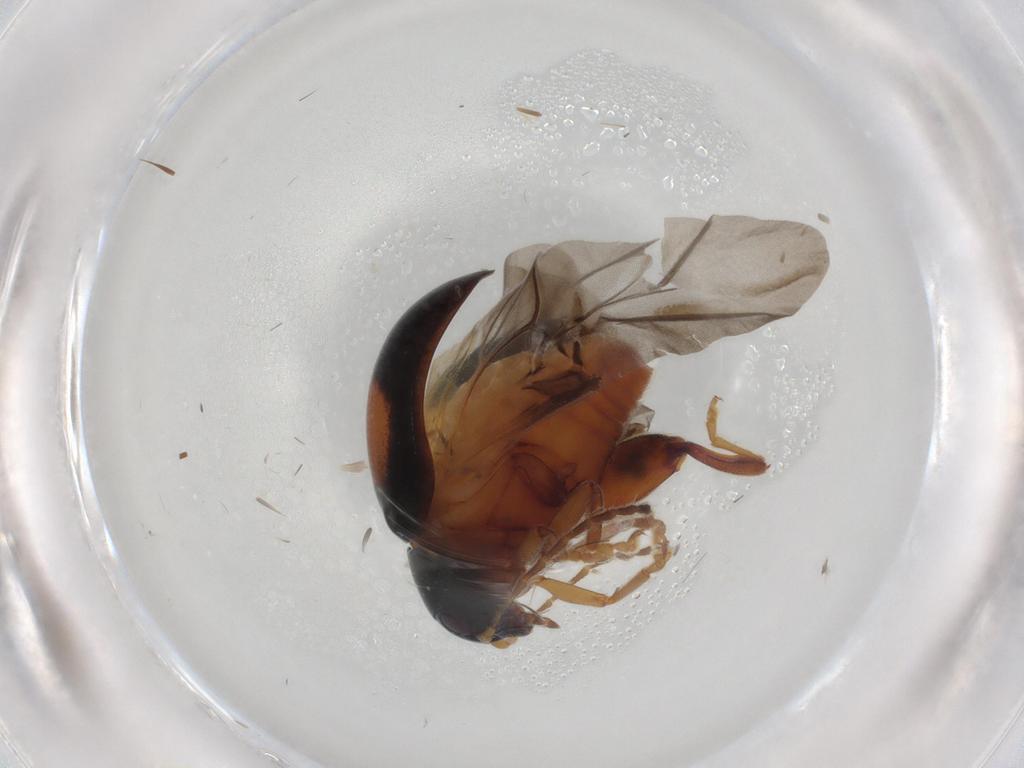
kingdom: Animalia
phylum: Arthropoda
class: Insecta
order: Coleoptera
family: Chrysomelidae
